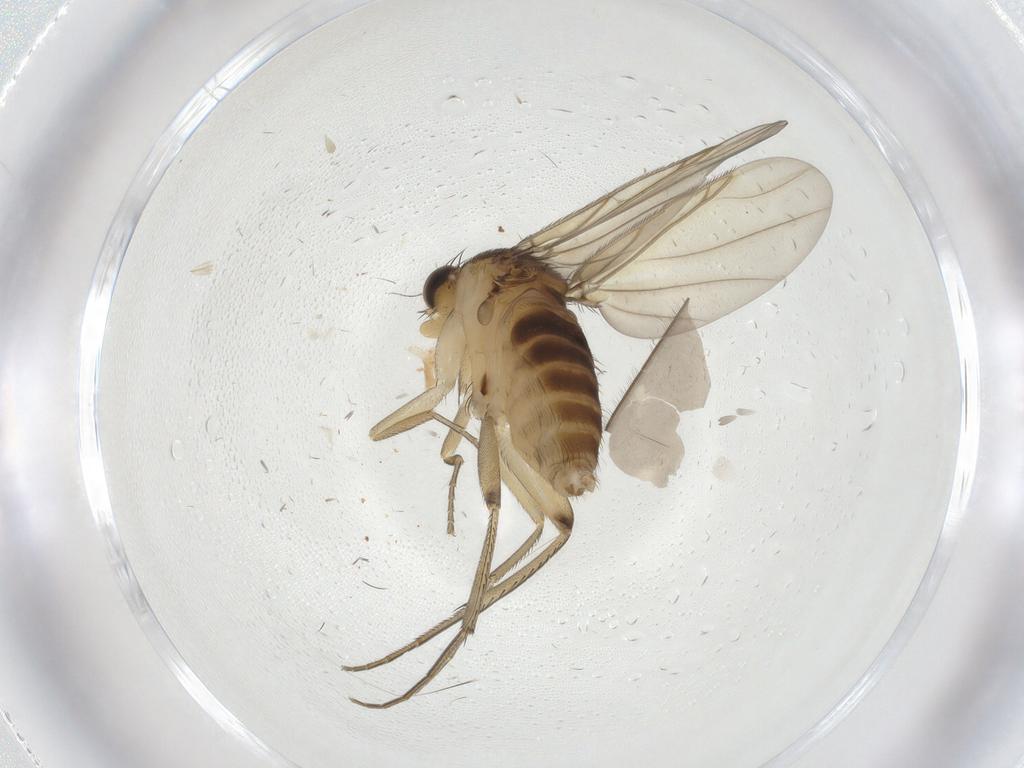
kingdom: Animalia
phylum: Arthropoda
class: Insecta
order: Diptera
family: Phoridae
